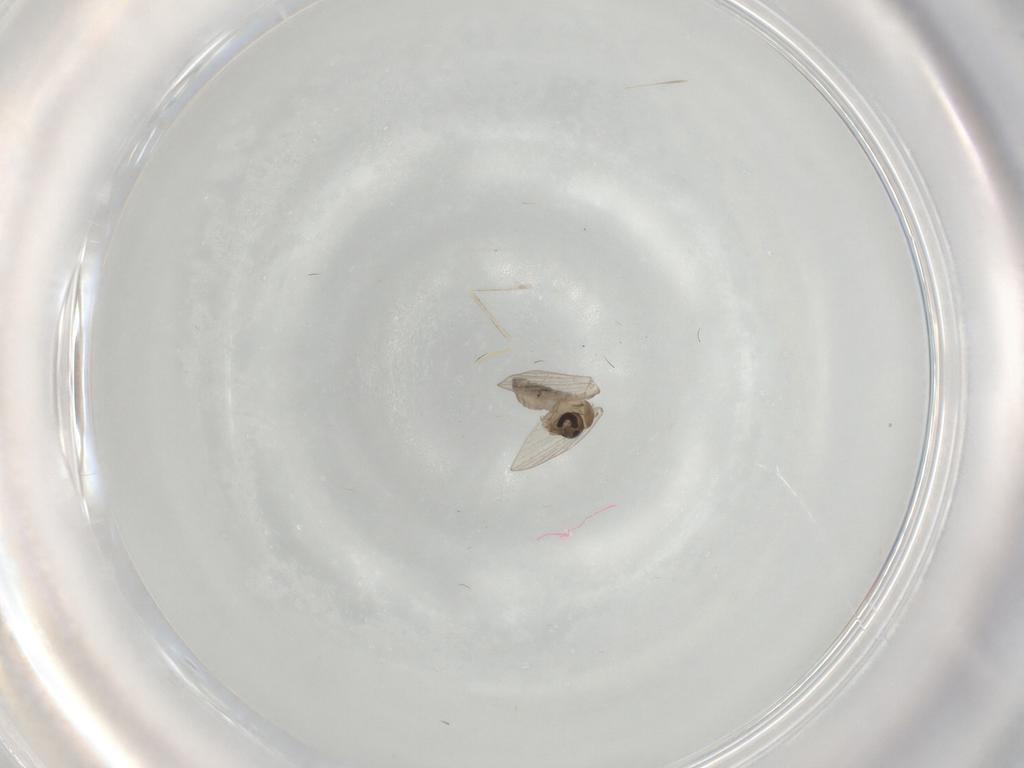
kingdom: Animalia
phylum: Arthropoda
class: Insecta
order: Diptera
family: Psychodidae
